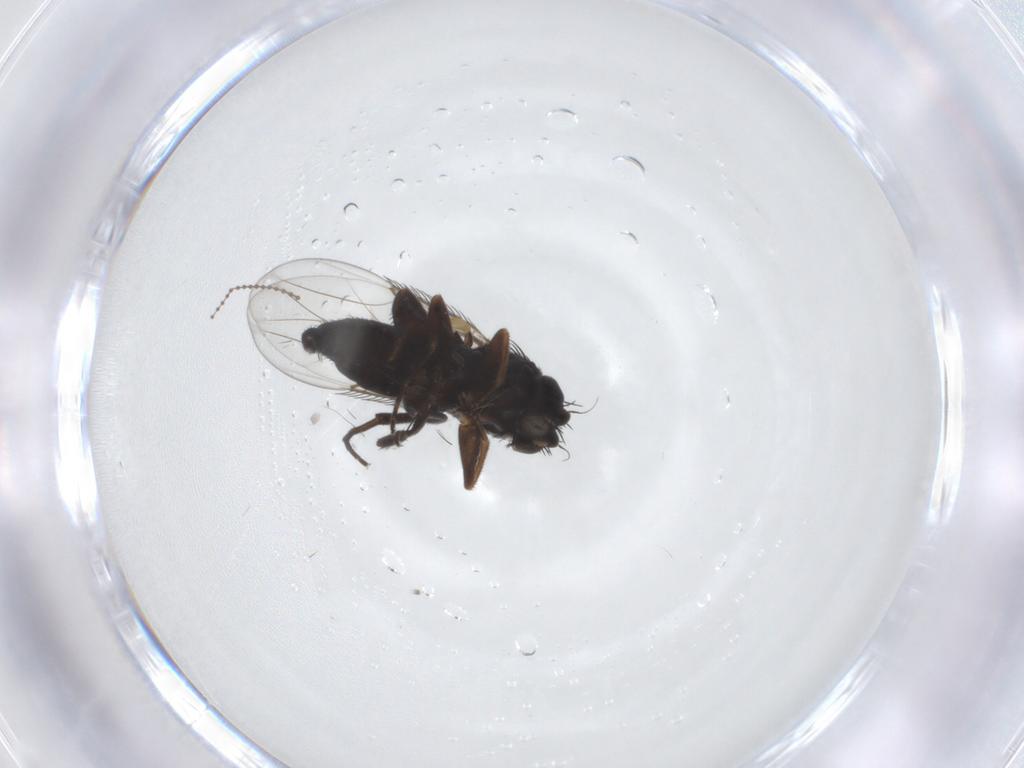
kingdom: Animalia
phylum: Arthropoda
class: Insecta
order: Diptera
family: Phoridae
